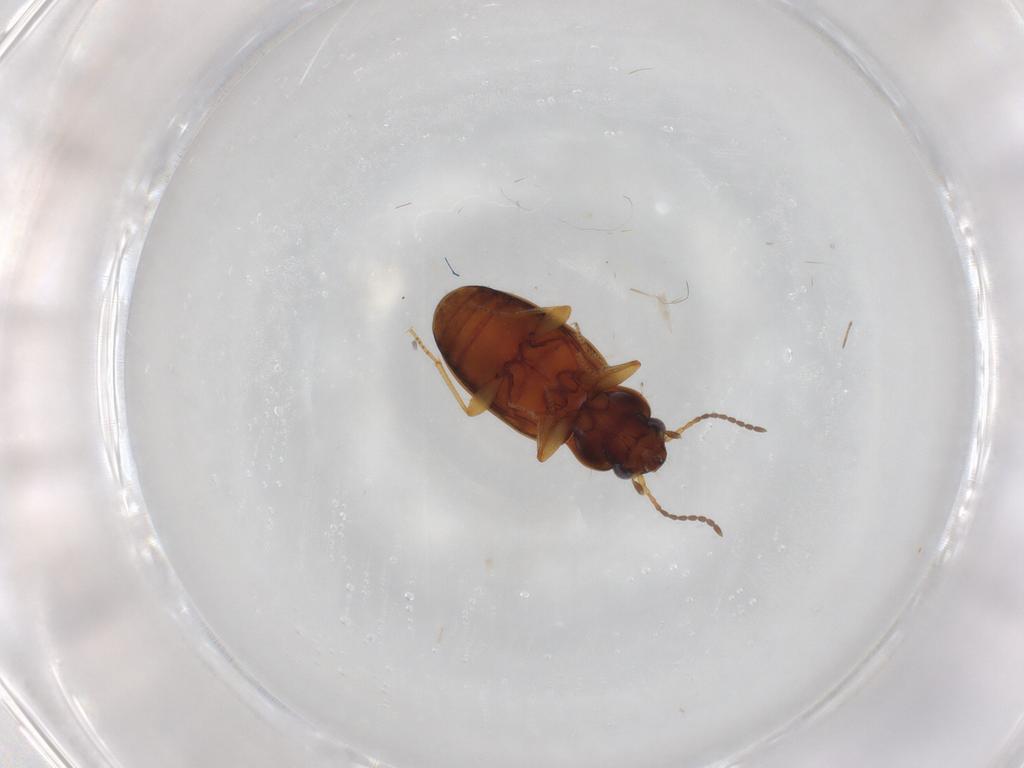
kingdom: Animalia
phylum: Arthropoda
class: Insecta
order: Coleoptera
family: Carabidae
